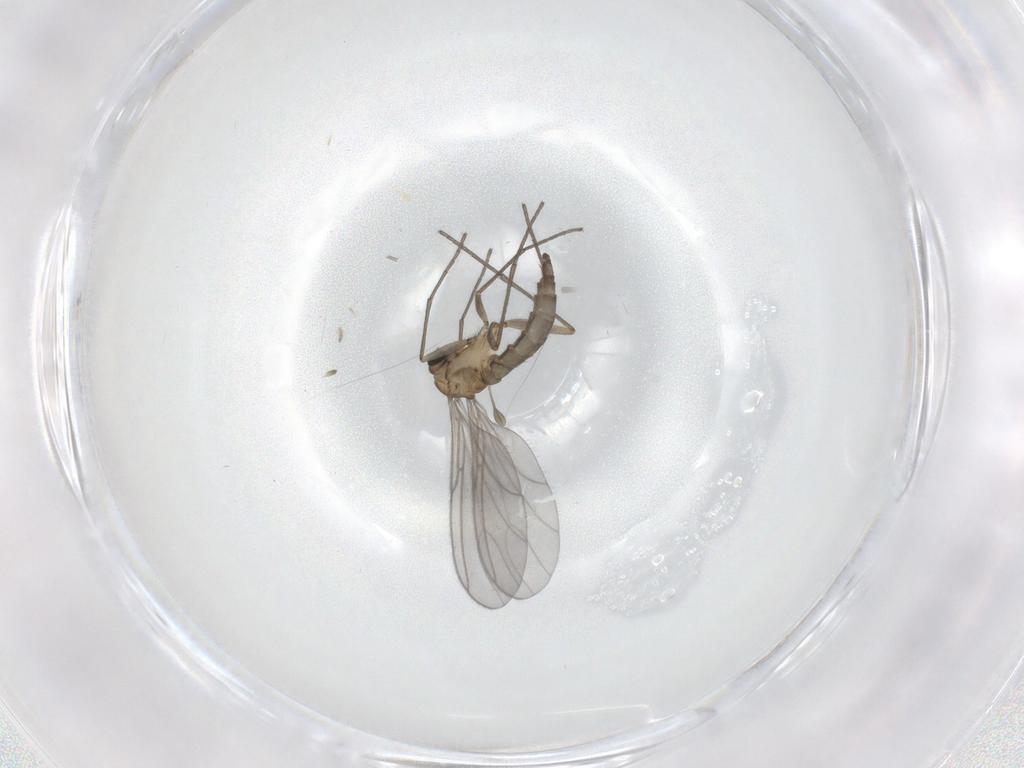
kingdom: Animalia
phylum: Arthropoda
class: Insecta
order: Diptera
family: Sciaridae
